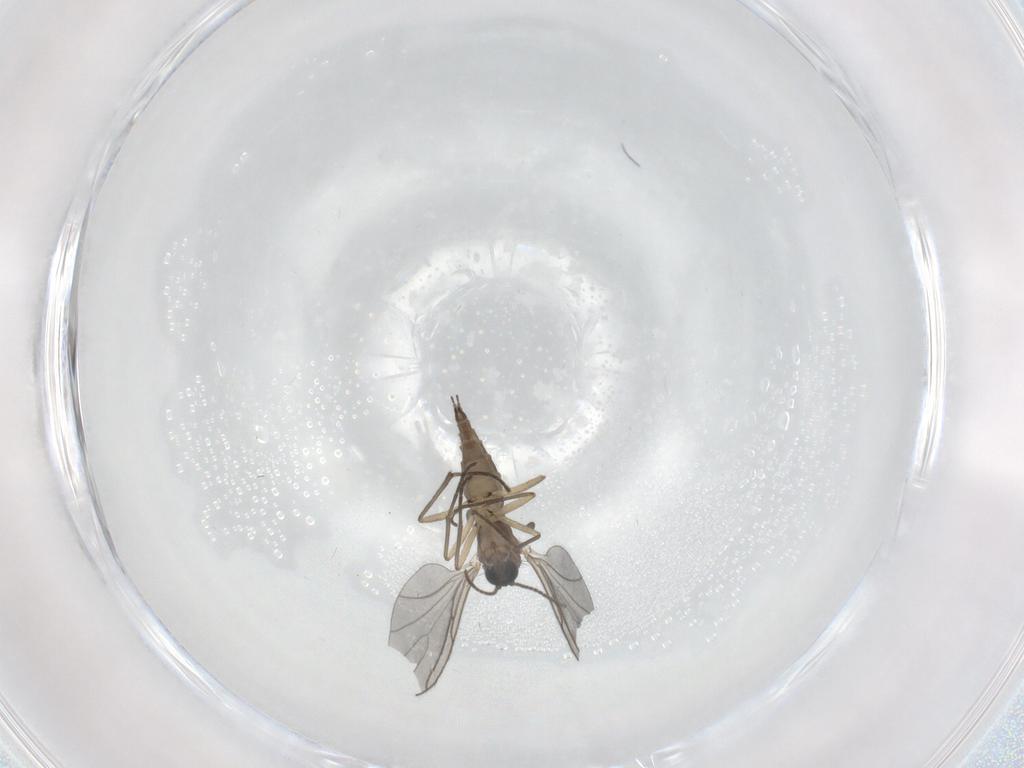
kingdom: Animalia
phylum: Arthropoda
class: Insecta
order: Diptera
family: Sciaridae
